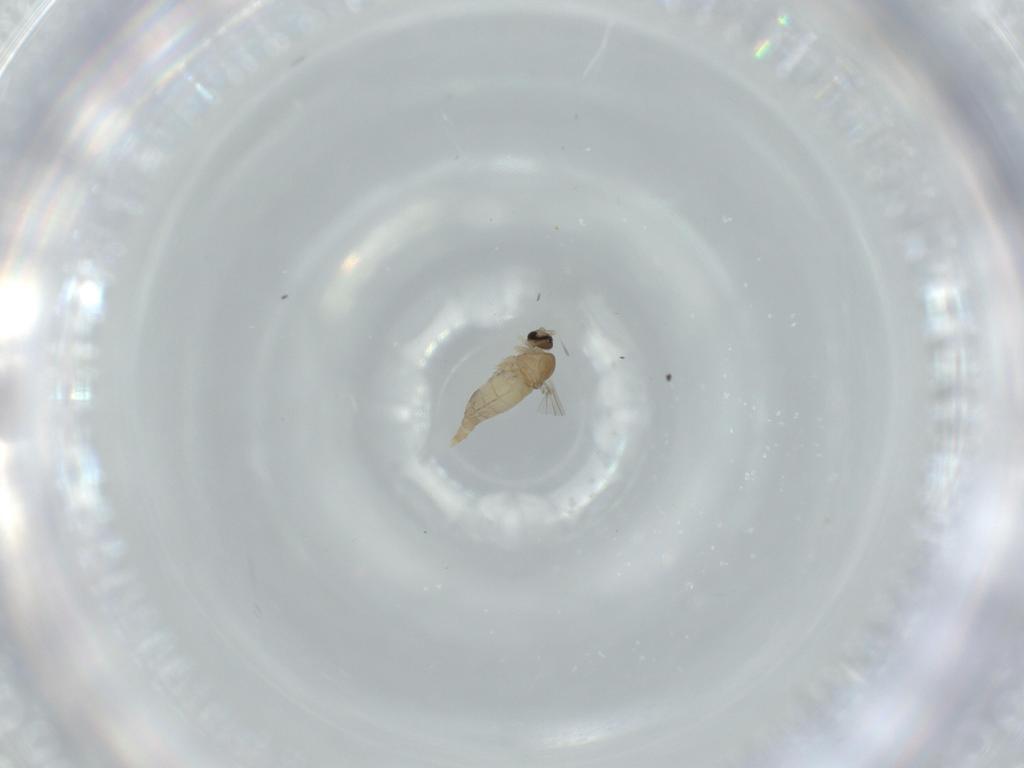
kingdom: Animalia
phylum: Arthropoda
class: Insecta
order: Diptera
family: Cecidomyiidae
